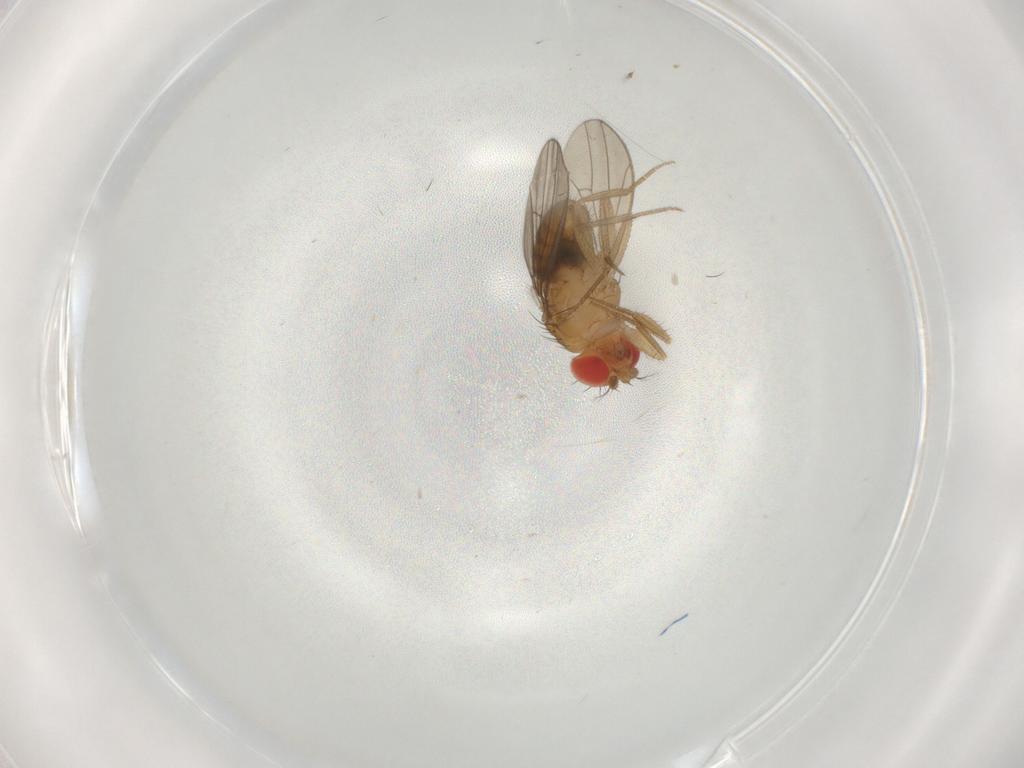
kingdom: Animalia
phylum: Arthropoda
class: Insecta
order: Diptera
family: Drosophilidae
